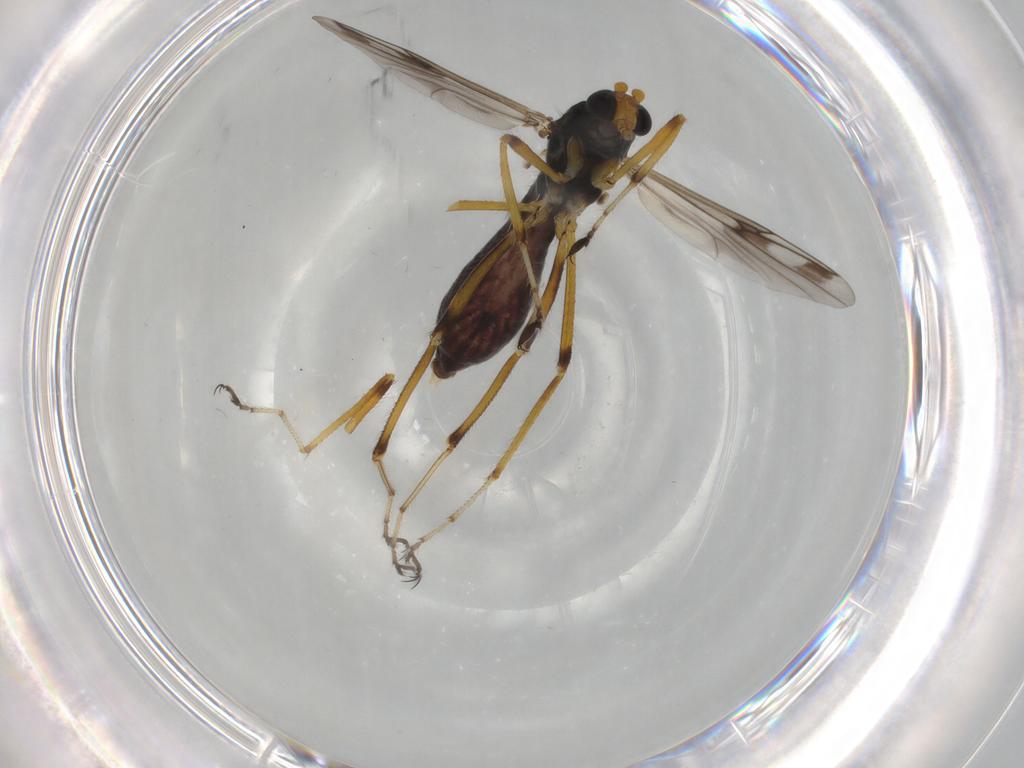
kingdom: Animalia
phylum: Arthropoda
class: Insecta
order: Diptera
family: Ceratopogonidae
